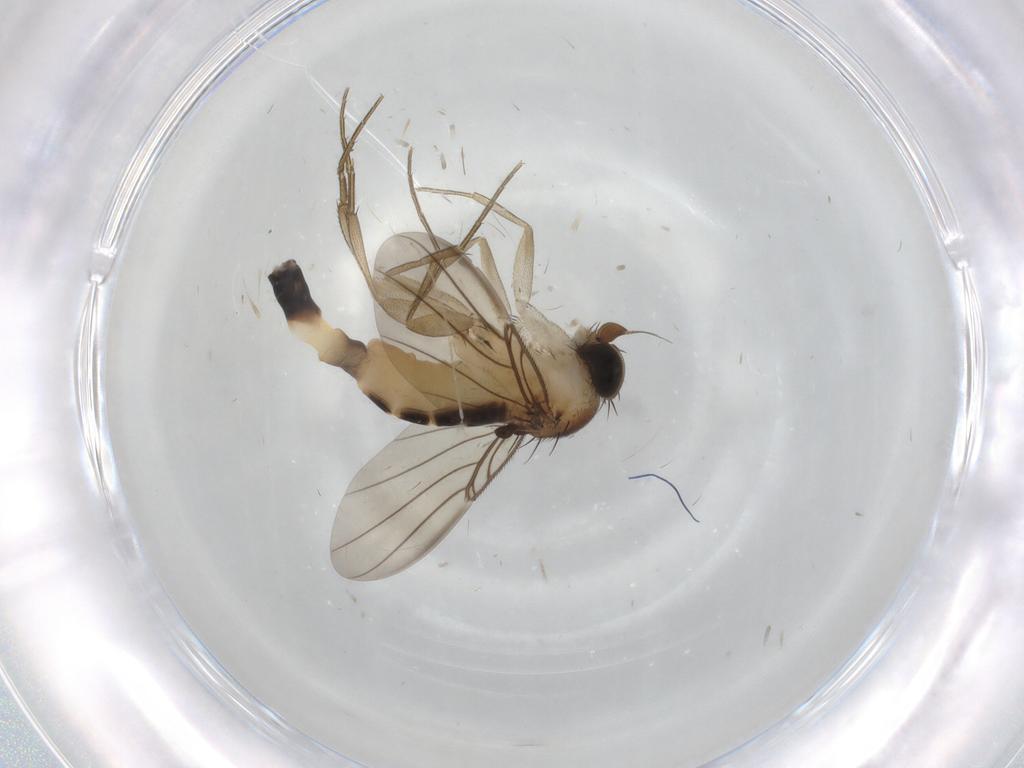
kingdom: Animalia
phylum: Arthropoda
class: Insecta
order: Diptera
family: Phoridae
